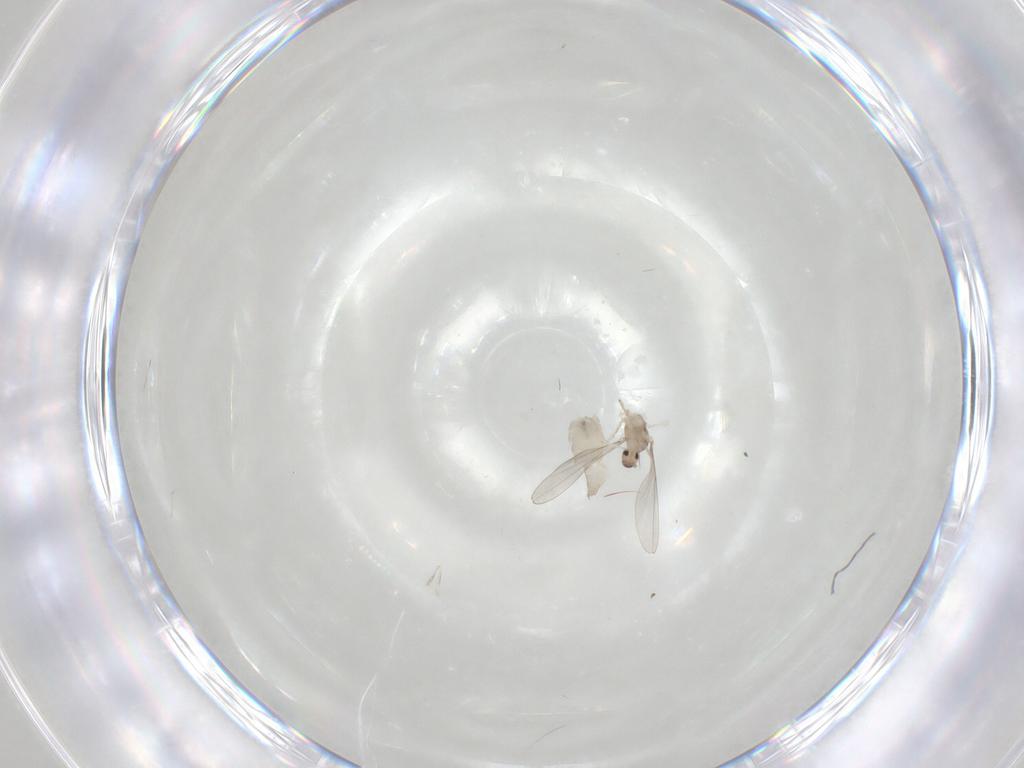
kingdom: Animalia
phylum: Arthropoda
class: Insecta
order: Diptera
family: Cecidomyiidae
